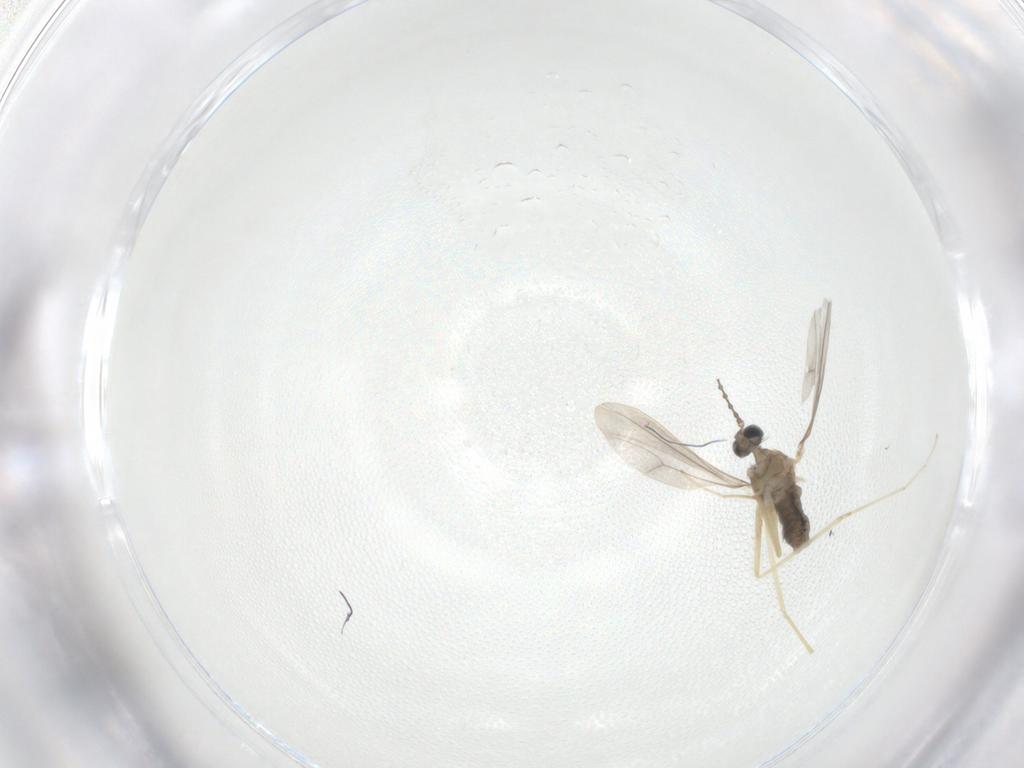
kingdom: Animalia
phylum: Arthropoda
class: Insecta
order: Diptera
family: Cecidomyiidae
